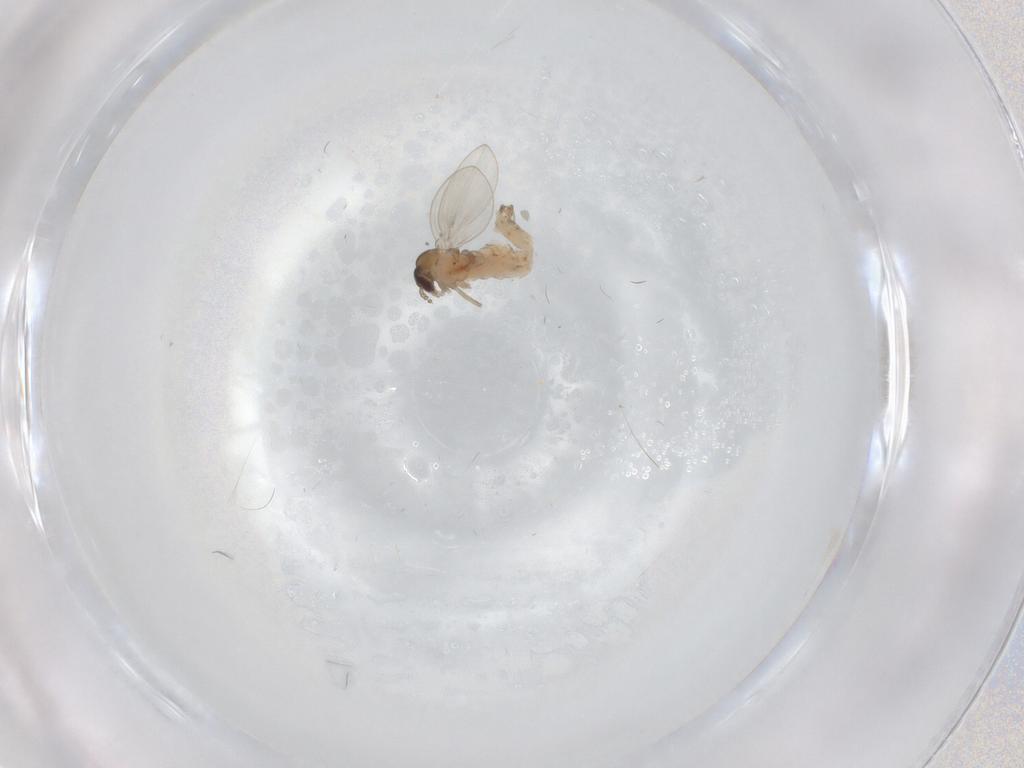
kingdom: Animalia
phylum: Arthropoda
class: Insecta
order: Diptera
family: Psychodidae
